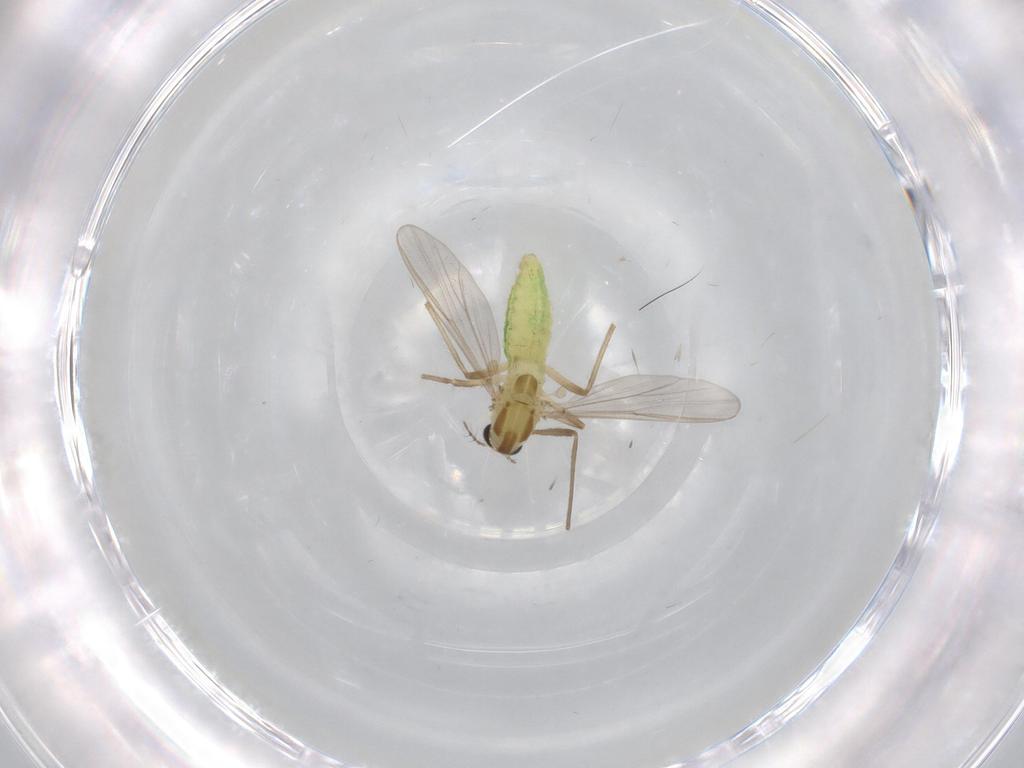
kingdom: Animalia
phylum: Arthropoda
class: Insecta
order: Diptera
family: Chironomidae
